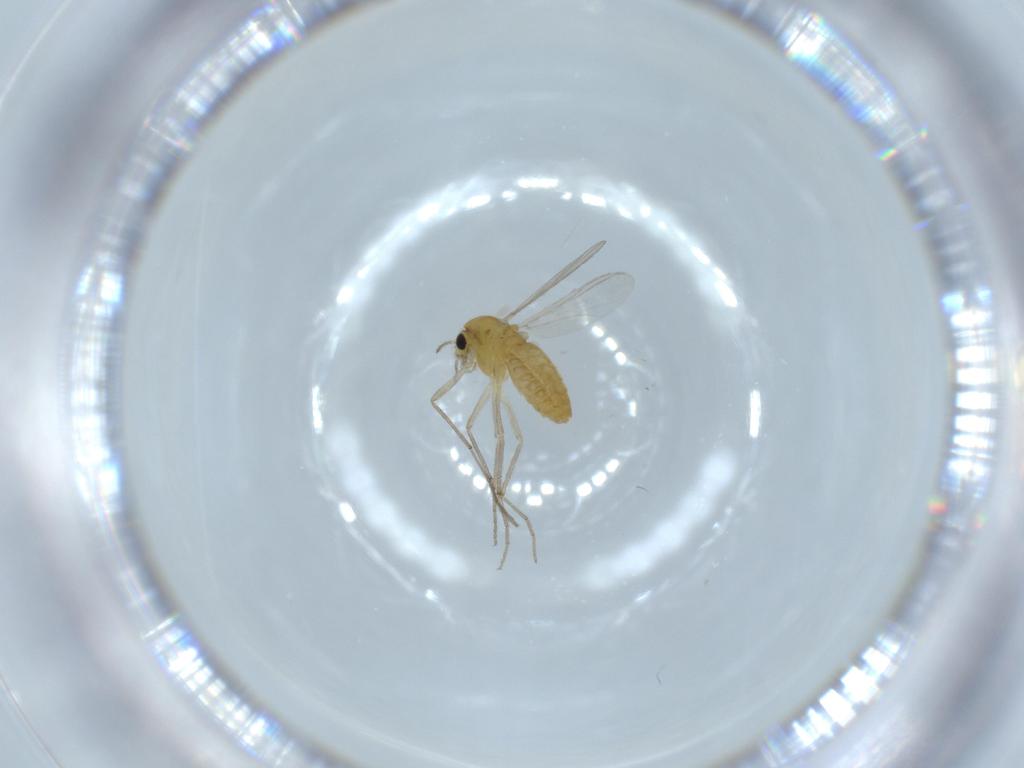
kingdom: Animalia
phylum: Arthropoda
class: Insecta
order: Diptera
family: Chironomidae
